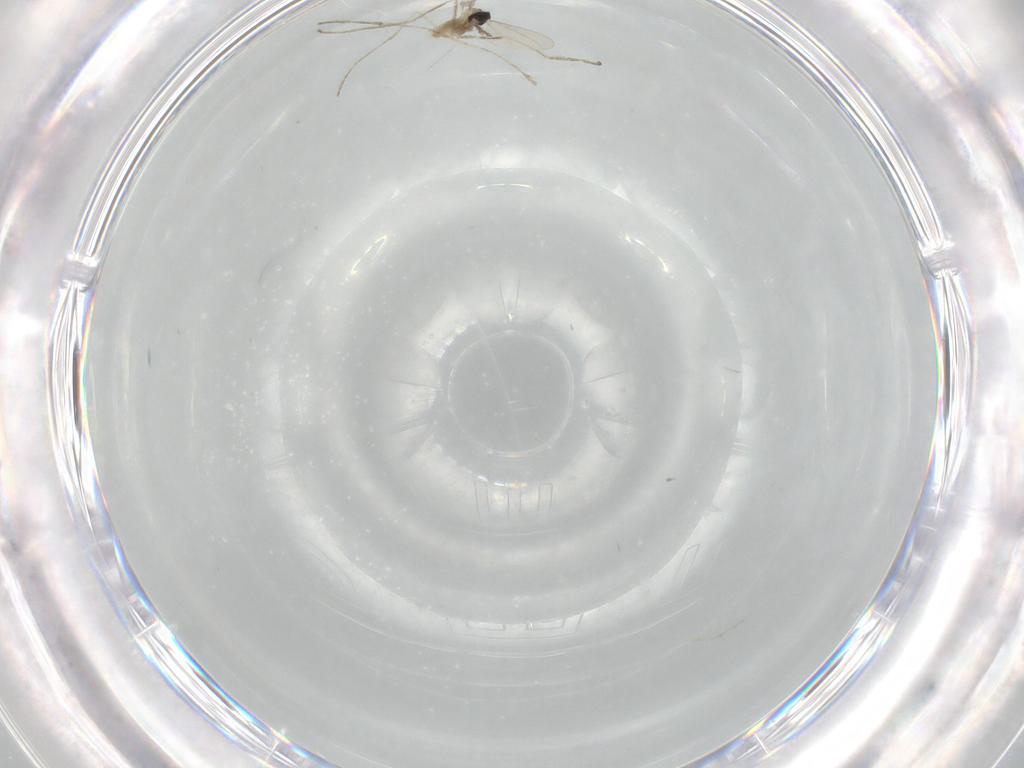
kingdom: Animalia
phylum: Arthropoda
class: Insecta
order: Diptera
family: Cecidomyiidae
